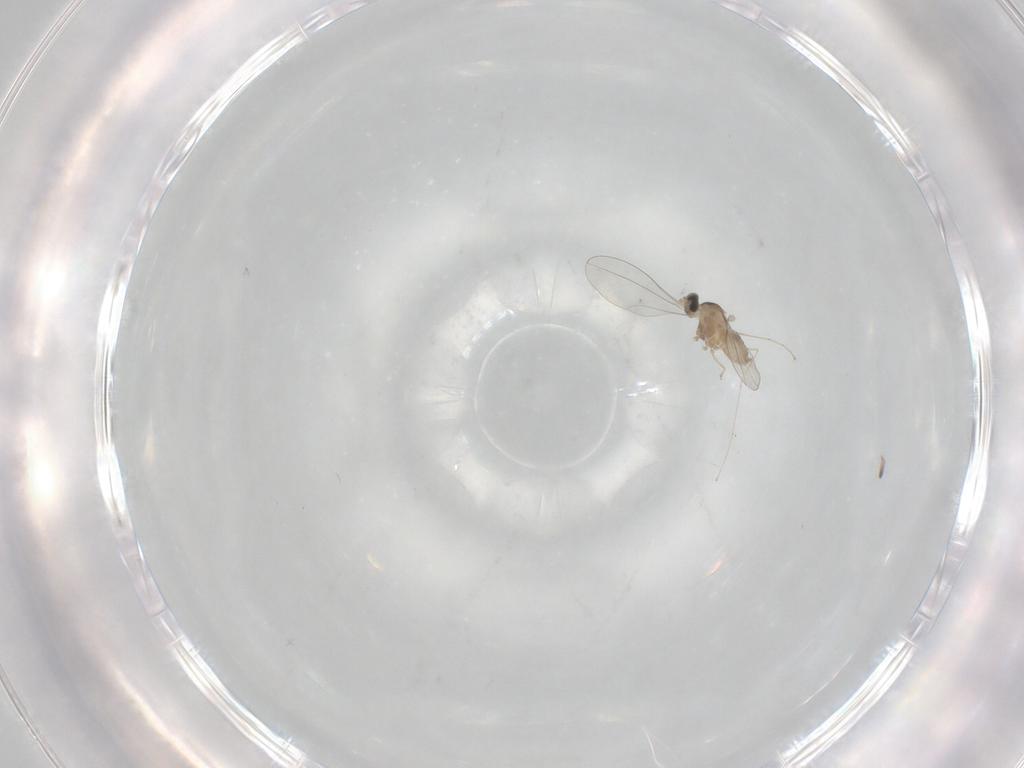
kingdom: Animalia
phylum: Arthropoda
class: Insecta
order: Diptera
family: Cecidomyiidae
